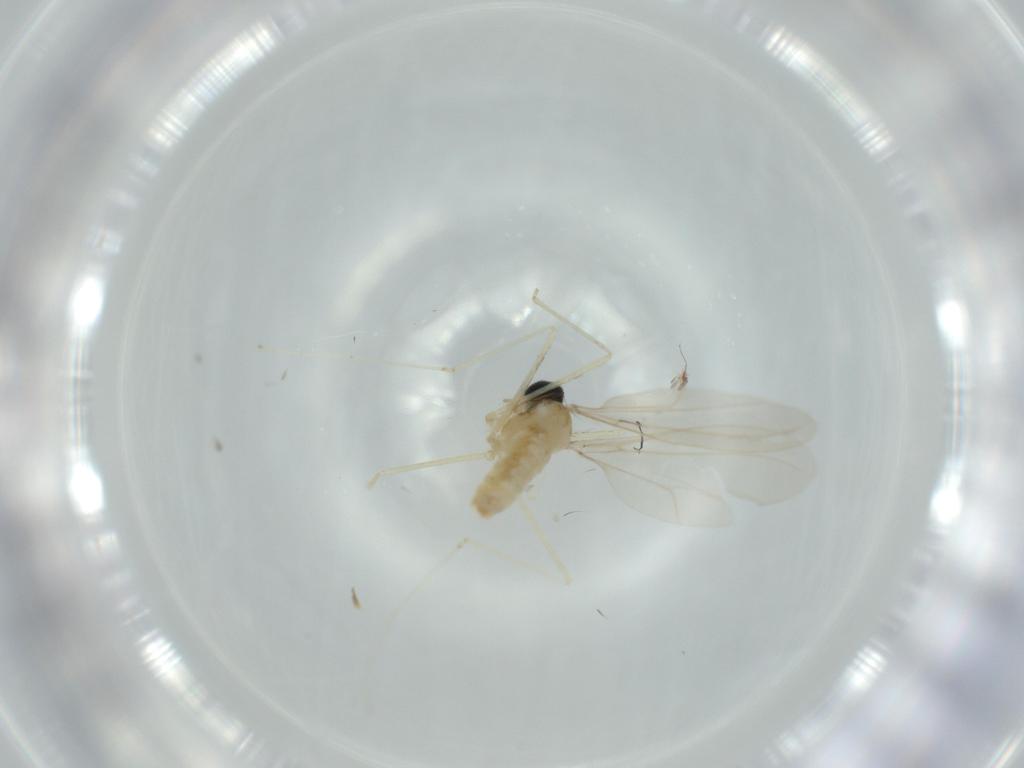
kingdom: Animalia
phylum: Arthropoda
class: Insecta
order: Diptera
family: Cecidomyiidae
